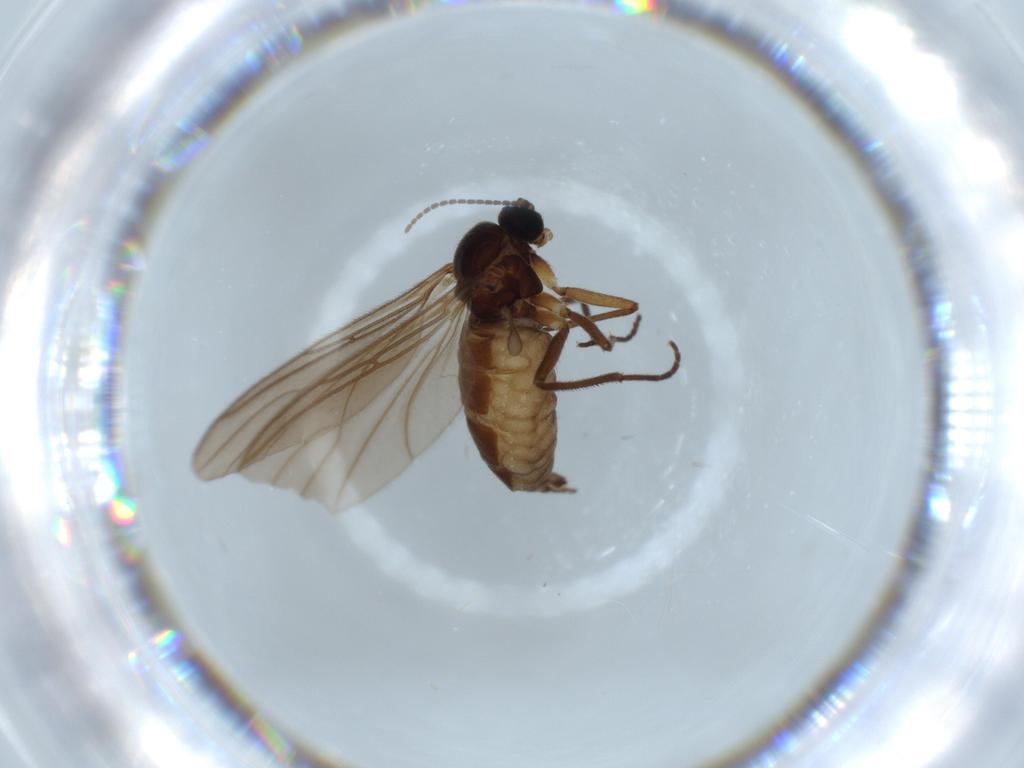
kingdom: Animalia
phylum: Arthropoda
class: Insecta
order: Diptera
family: Sciaridae
